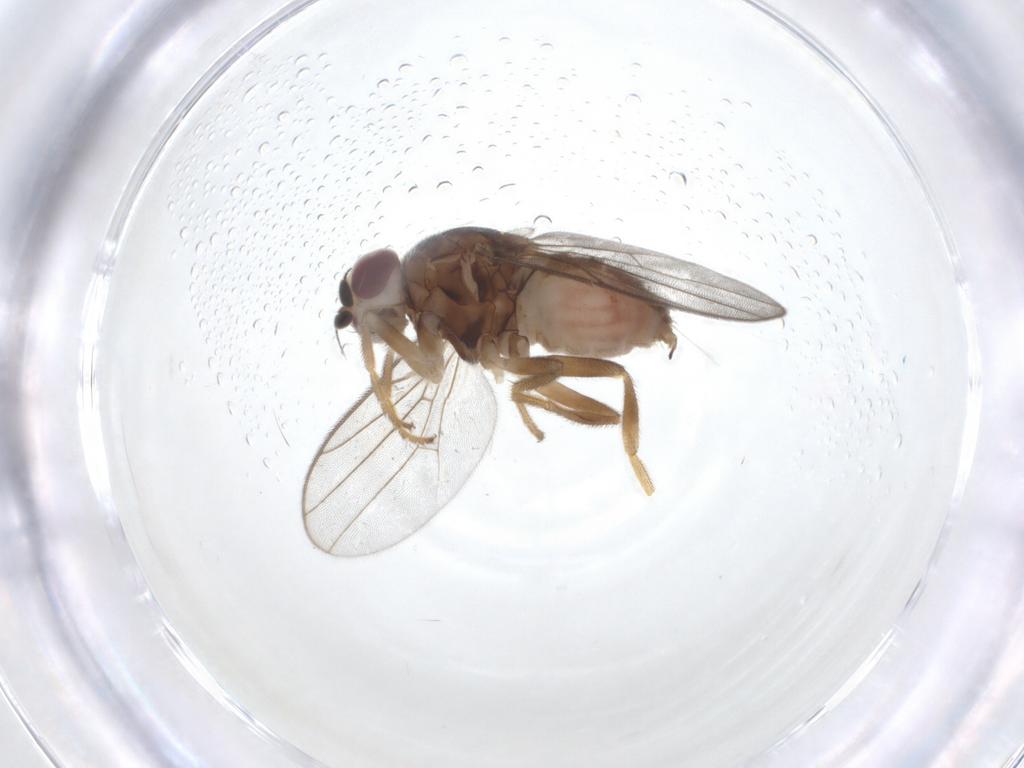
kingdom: Animalia
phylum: Arthropoda
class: Insecta
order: Diptera
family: Chloropidae
